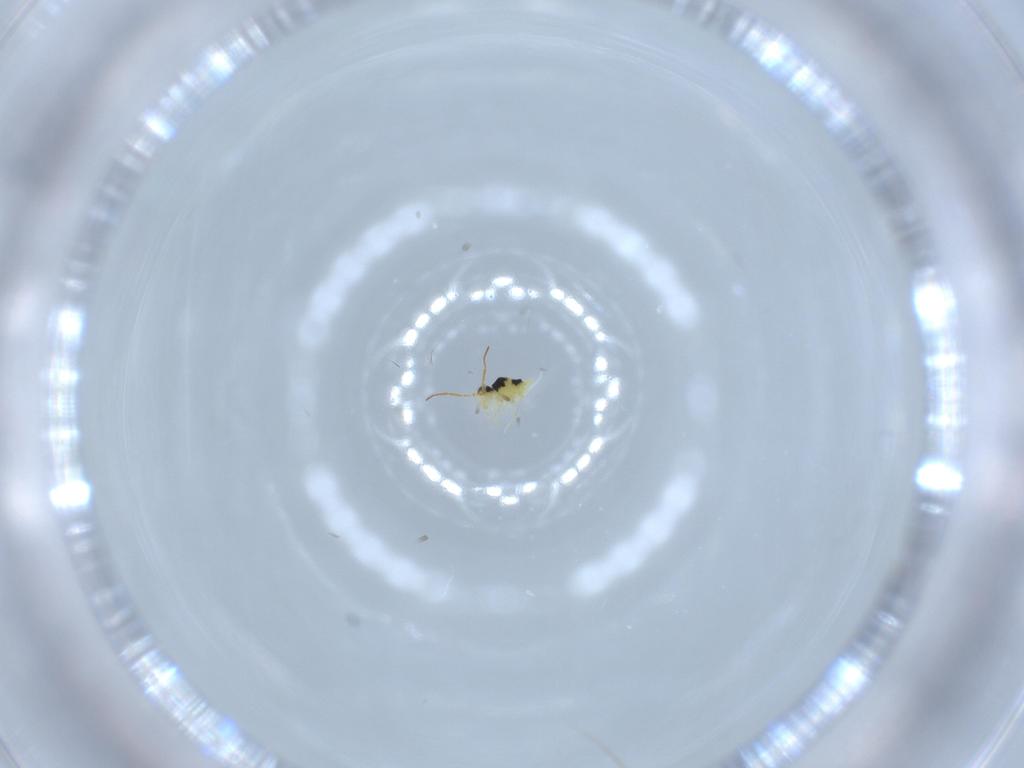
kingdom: Animalia
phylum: Arthropoda
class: Collembola
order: Symphypleona
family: Bourletiellidae
